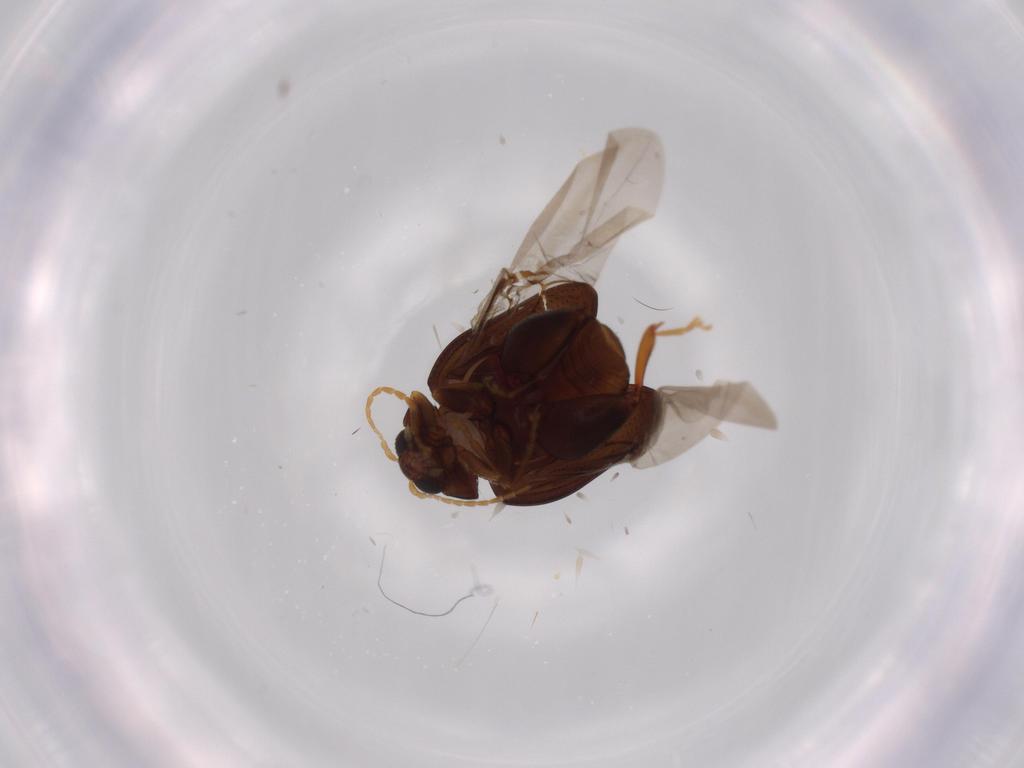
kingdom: Animalia
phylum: Arthropoda
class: Insecta
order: Coleoptera
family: Chrysomelidae
